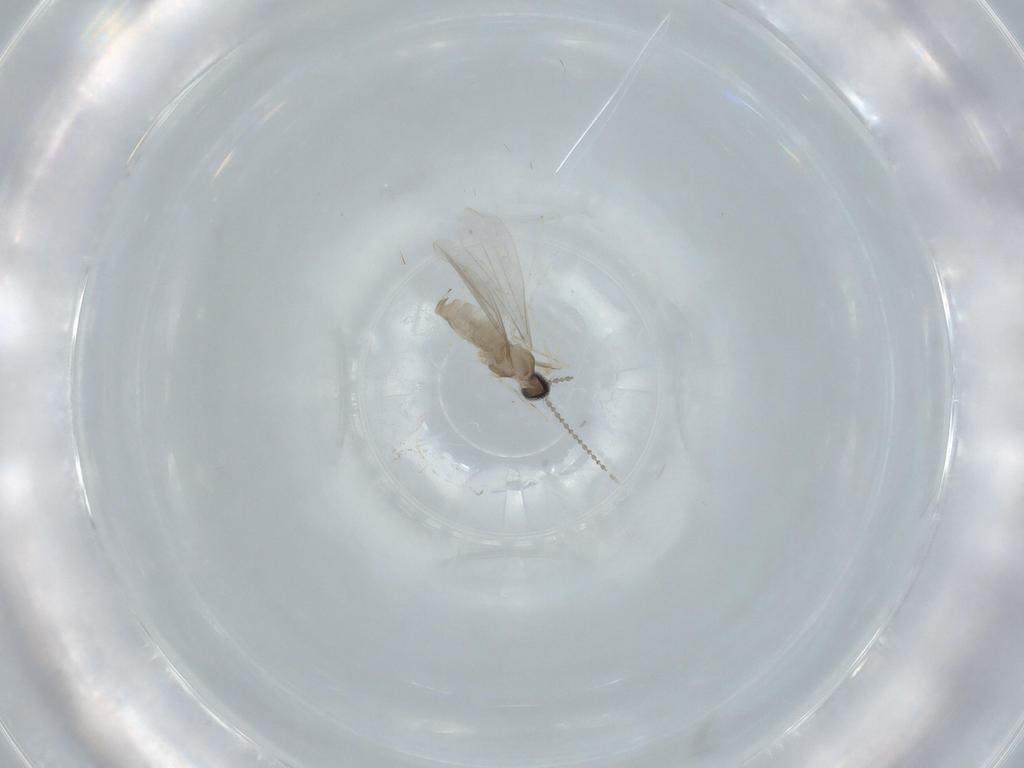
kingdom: Animalia
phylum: Arthropoda
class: Insecta
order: Diptera
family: Cecidomyiidae
